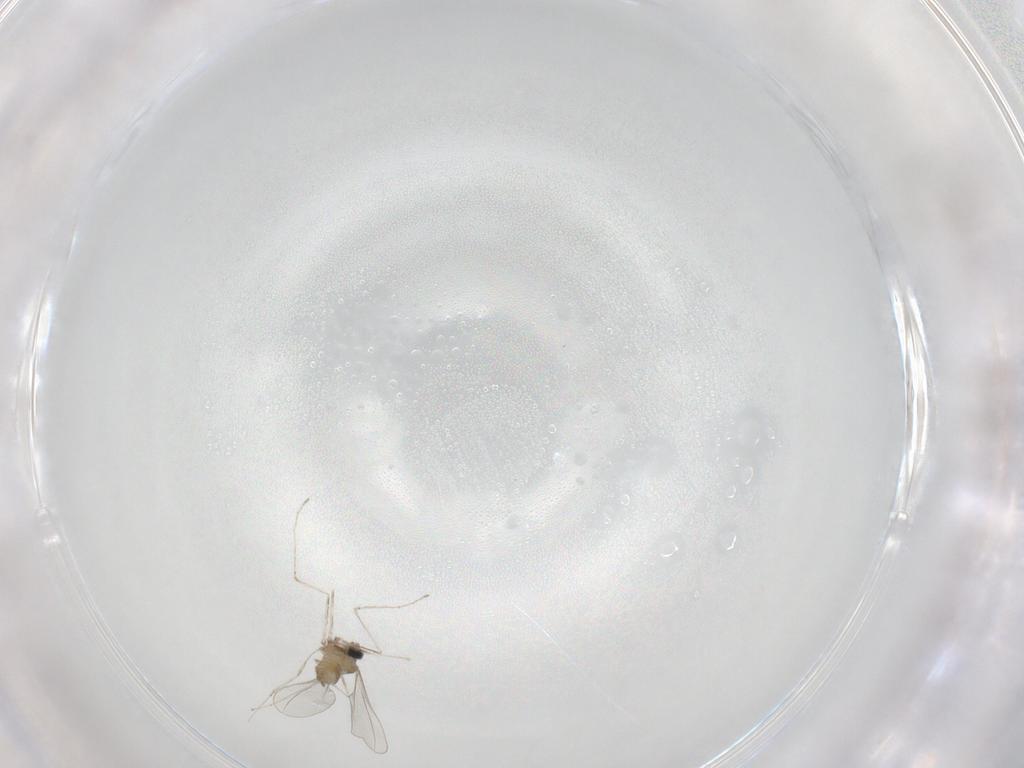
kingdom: Animalia
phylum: Arthropoda
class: Insecta
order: Diptera
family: Cecidomyiidae
